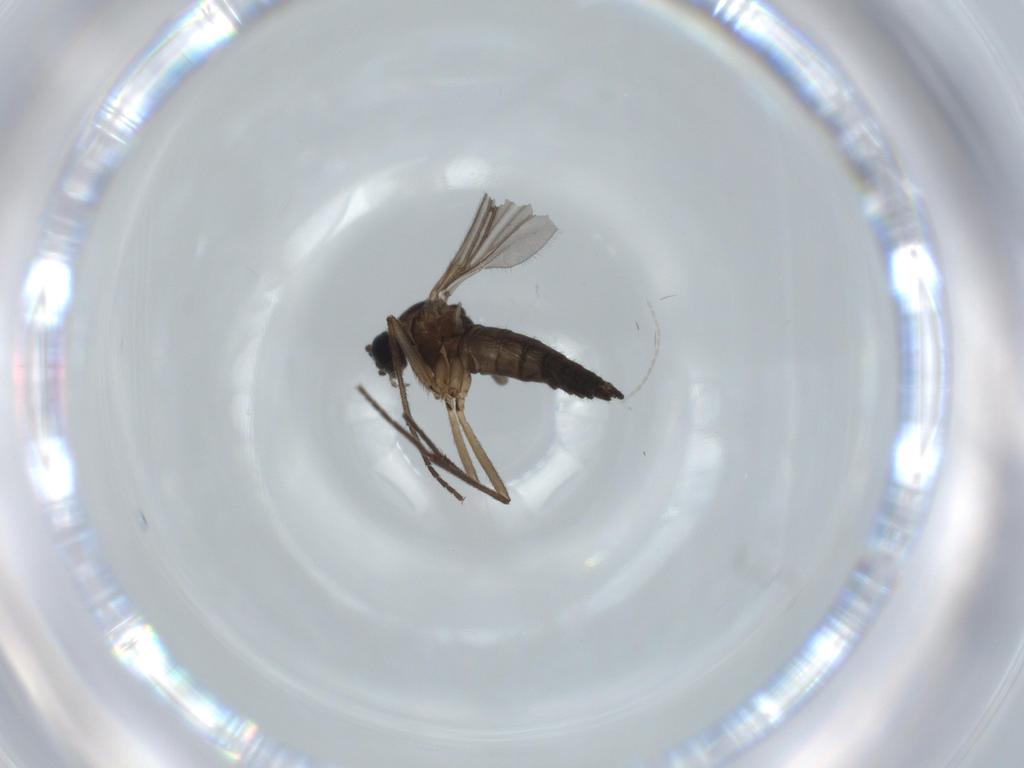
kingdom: Animalia
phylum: Arthropoda
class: Insecta
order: Diptera
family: Sciaridae
